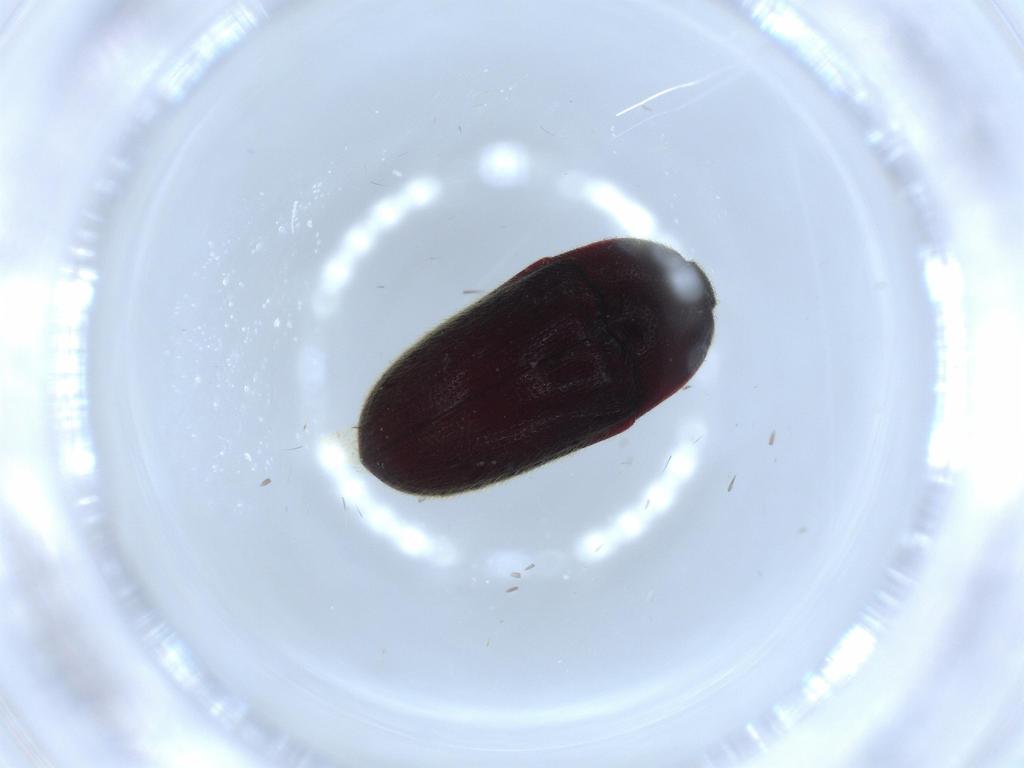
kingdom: Animalia
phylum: Arthropoda
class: Insecta
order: Coleoptera
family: Throscidae
